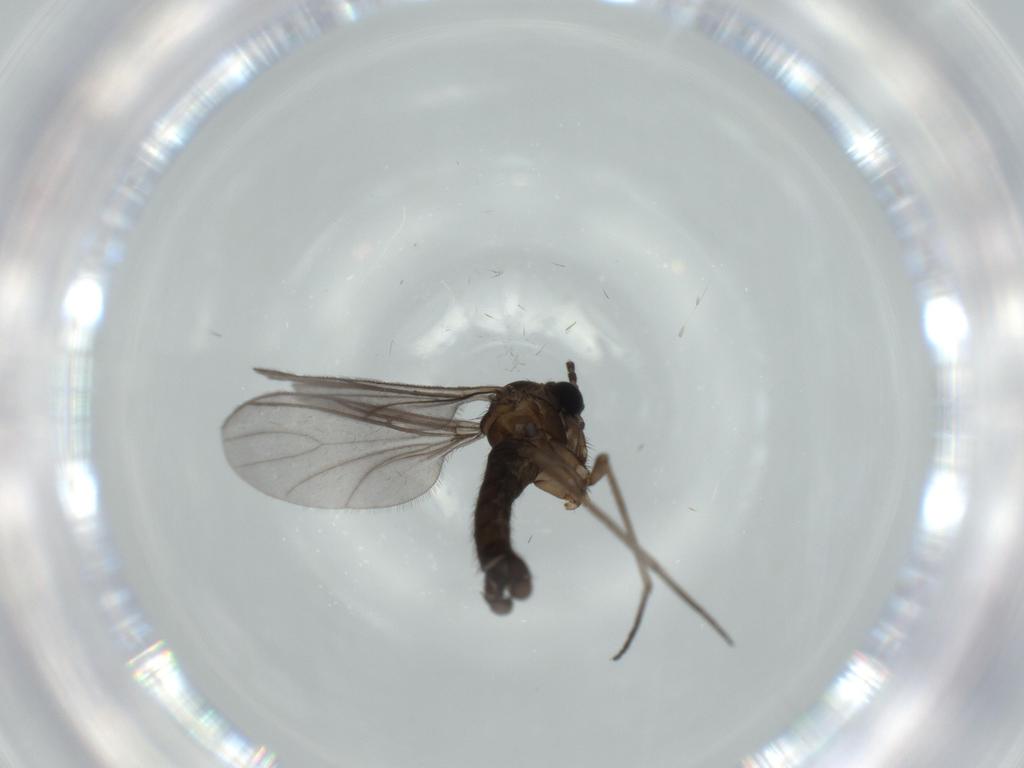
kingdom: Animalia
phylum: Arthropoda
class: Insecta
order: Diptera
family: Sciaridae
